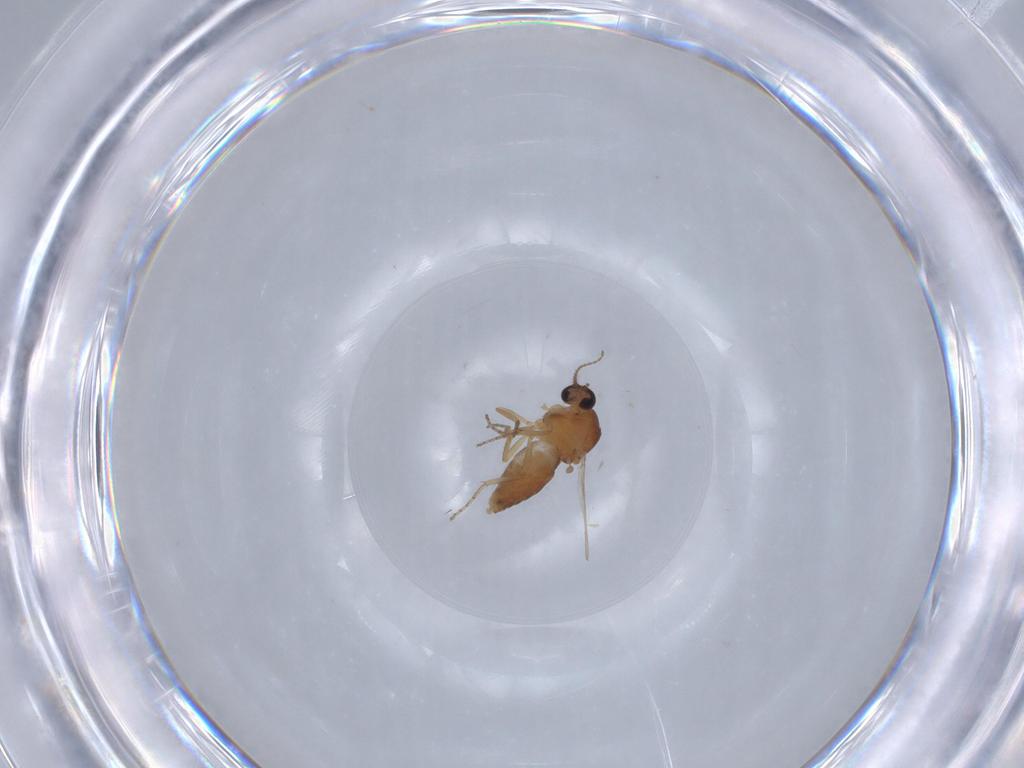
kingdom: Animalia
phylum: Arthropoda
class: Insecta
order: Diptera
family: Ceratopogonidae
